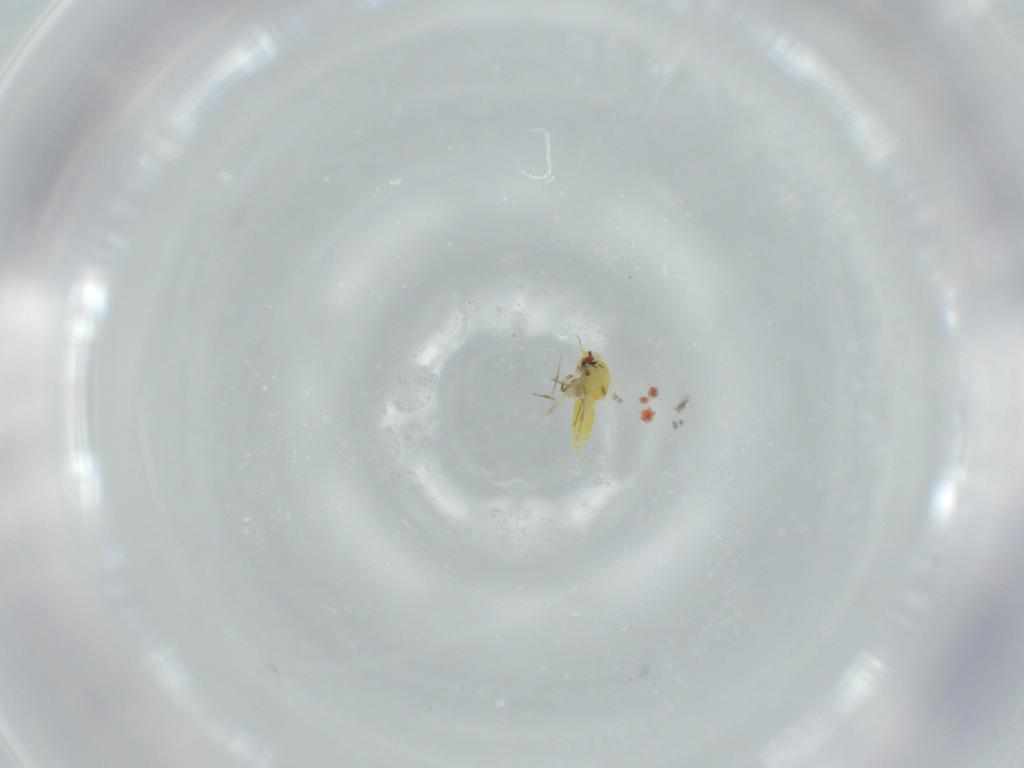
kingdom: Animalia
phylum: Arthropoda
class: Insecta
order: Hemiptera
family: Aleyrodidae
